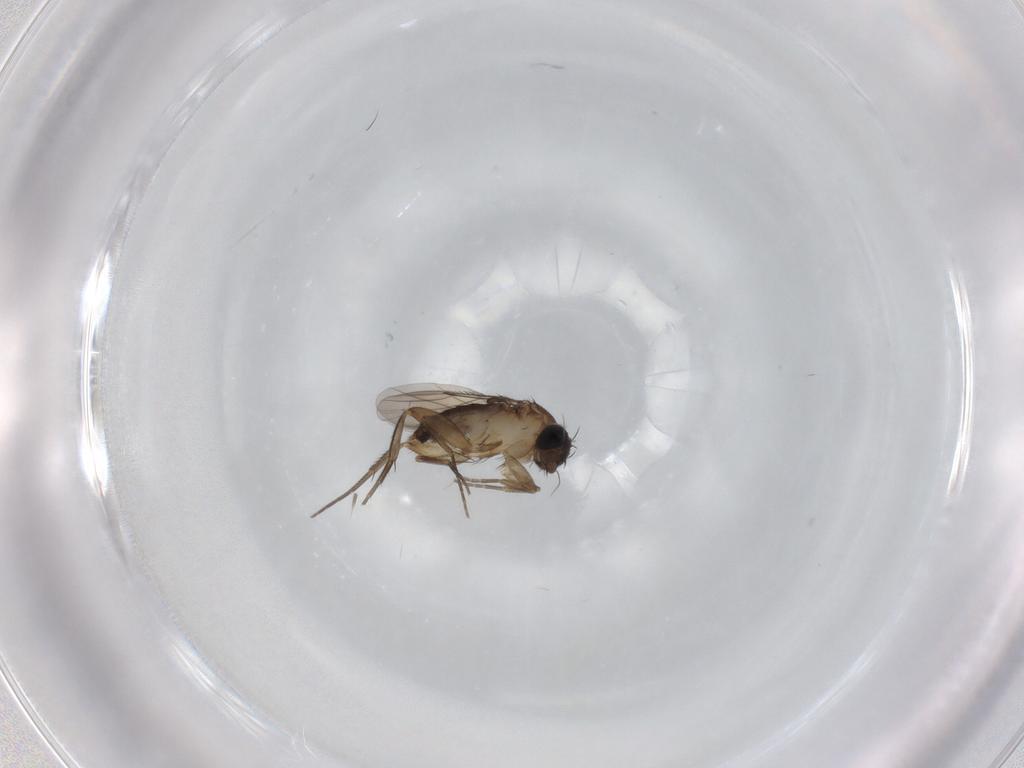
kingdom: Animalia
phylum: Arthropoda
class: Insecta
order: Diptera
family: Phoridae
